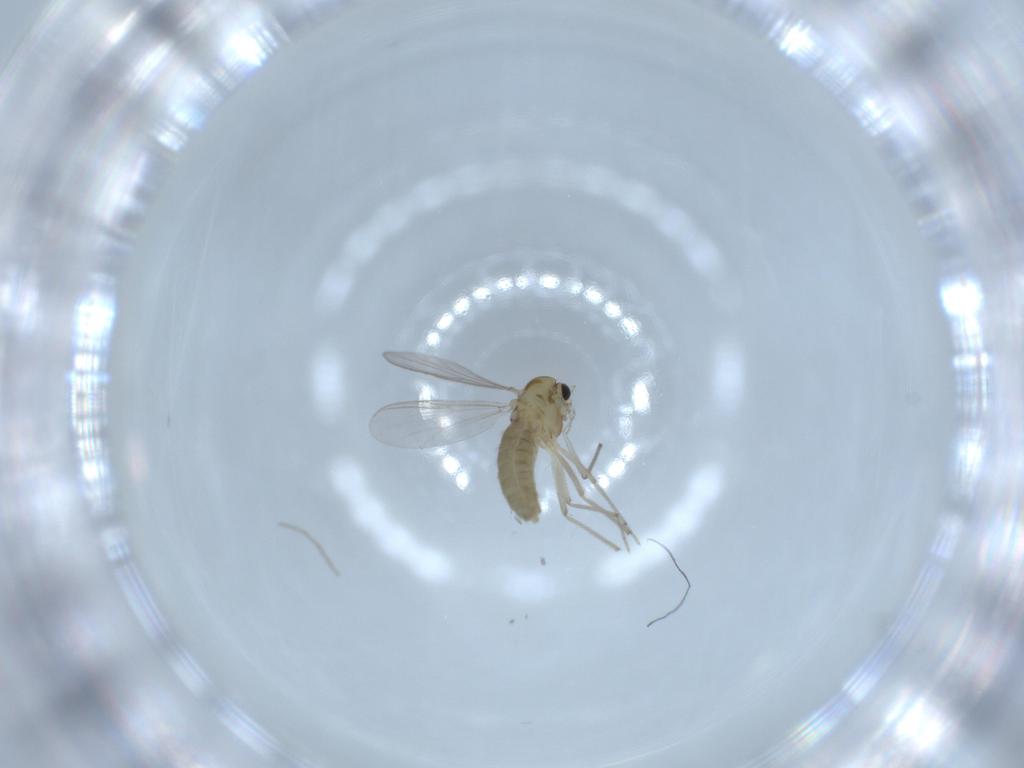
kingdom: Animalia
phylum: Arthropoda
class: Insecta
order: Diptera
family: Chironomidae
